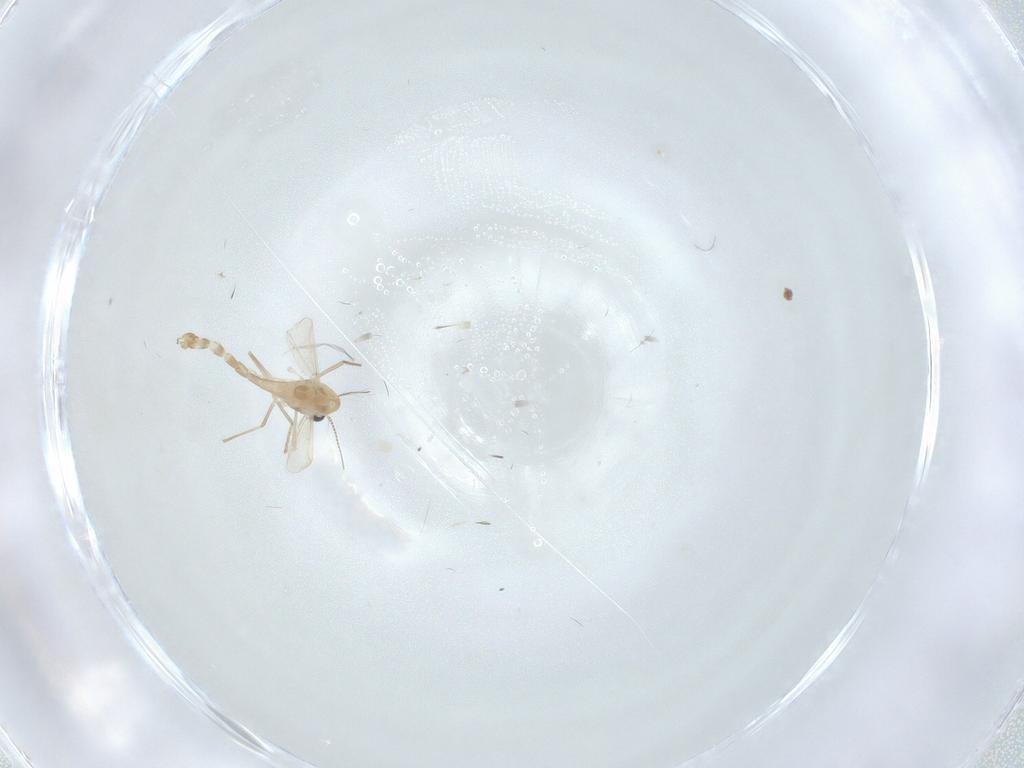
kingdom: Animalia
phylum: Arthropoda
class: Insecta
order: Diptera
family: Chironomidae
